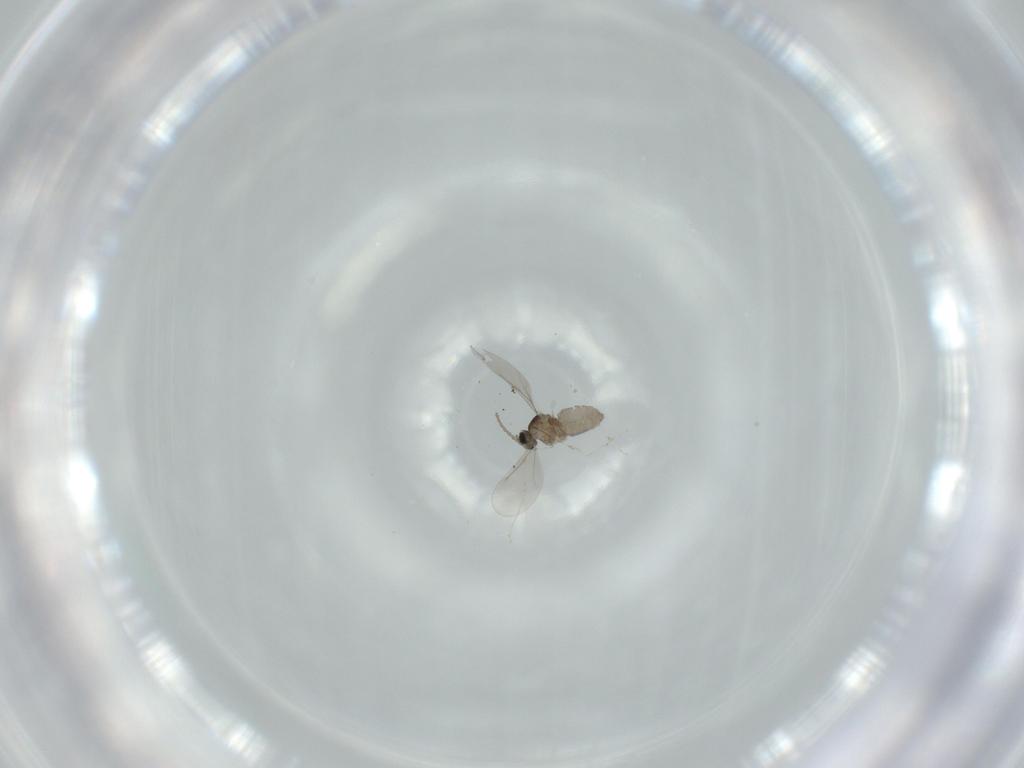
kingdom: Animalia
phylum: Arthropoda
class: Insecta
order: Diptera
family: Cecidomyiidae
